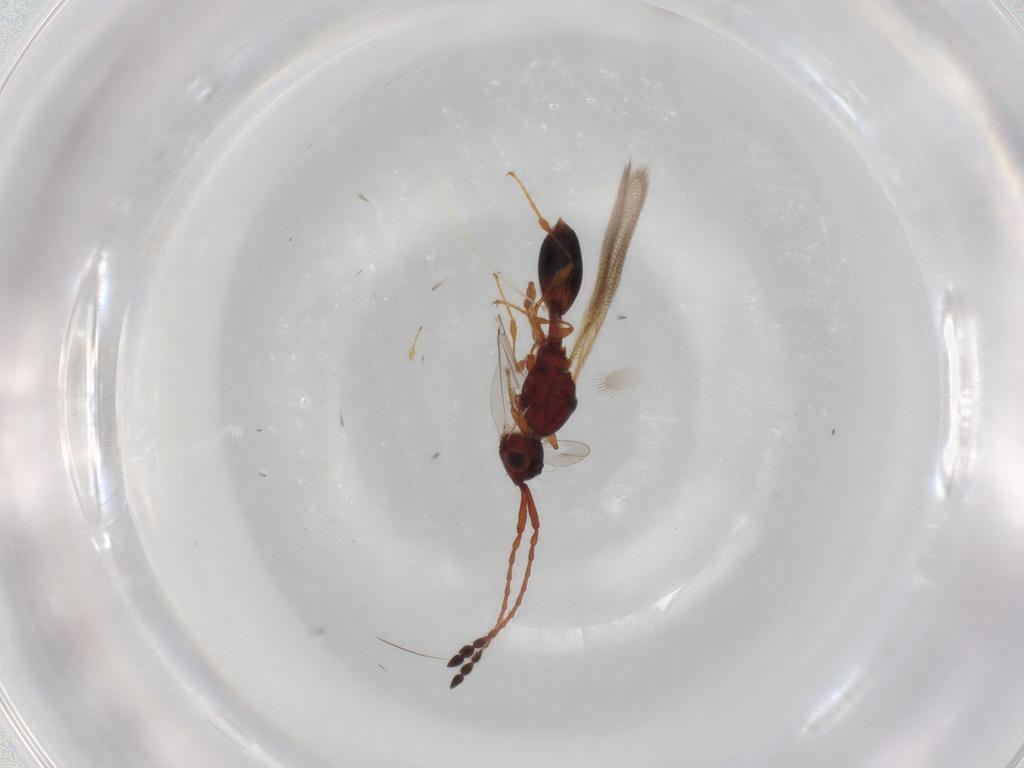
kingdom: Animalia
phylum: Arthropoda
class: Insecta
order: Hymenoptera
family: Scelionidae
